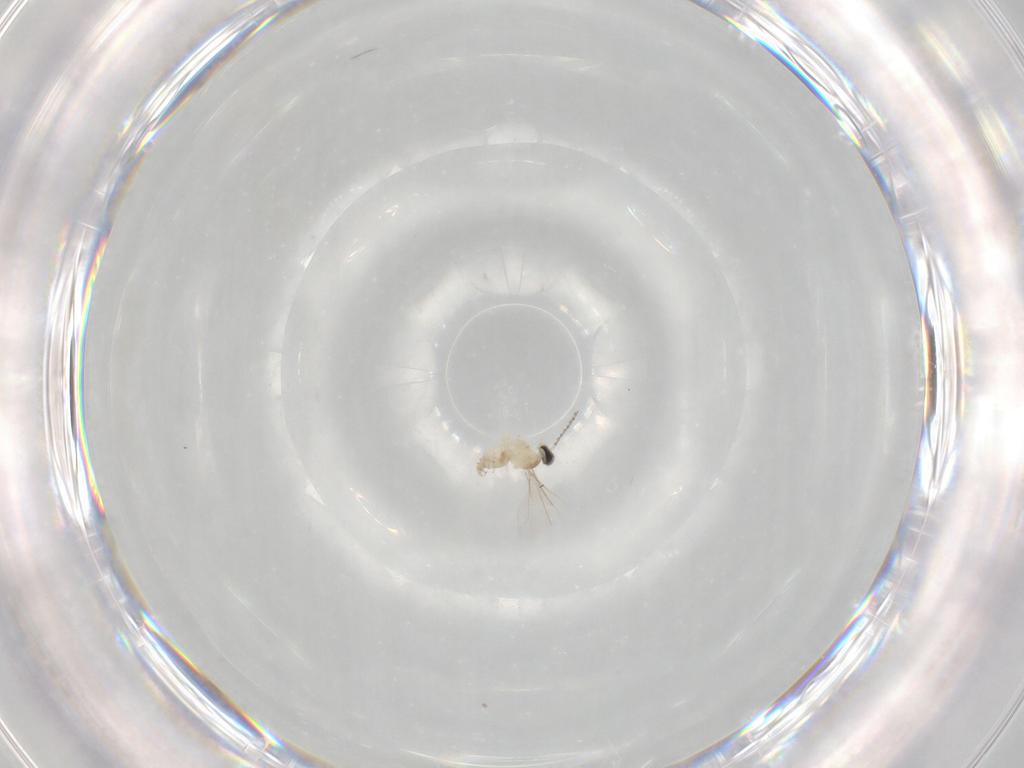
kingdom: Animalia
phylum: Arthropoda
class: Insecta
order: Diptera
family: Cecidomyiidae
